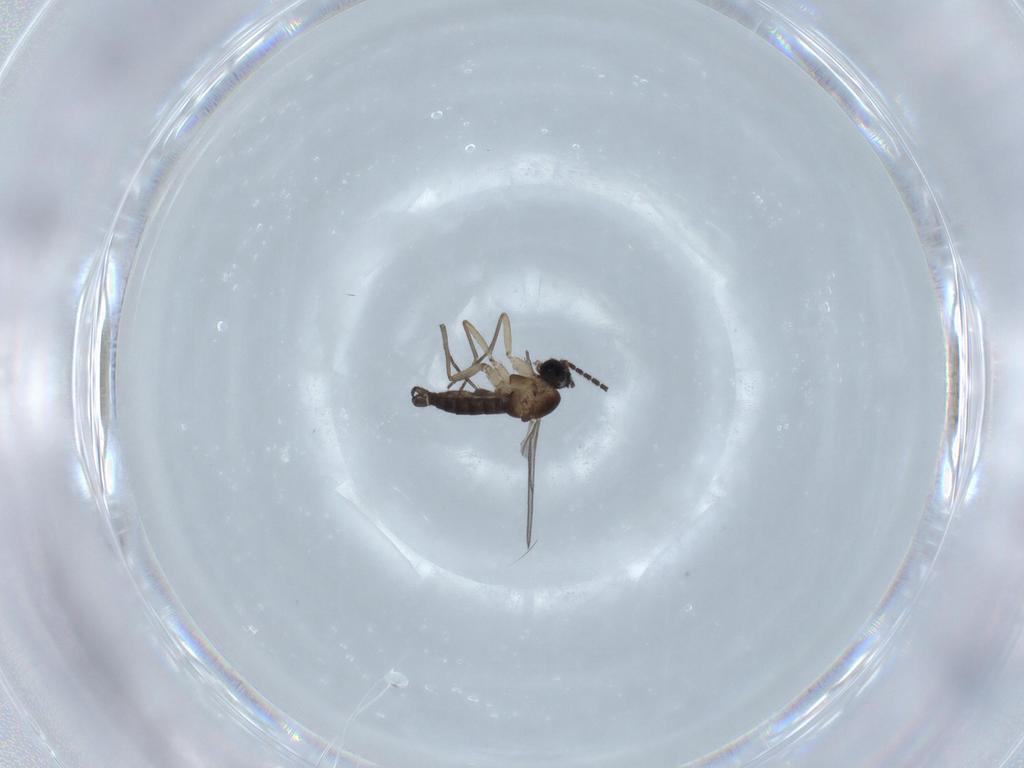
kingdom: Animalia
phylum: Arthropoda
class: Insecta
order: Diptera
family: Sciaridae
